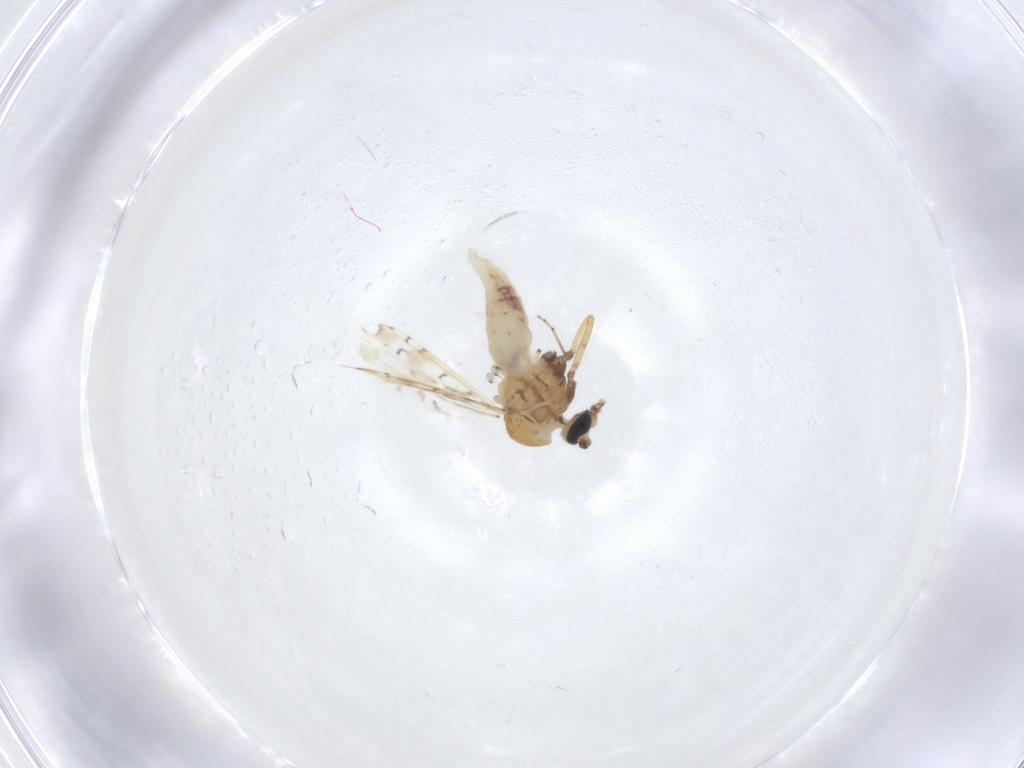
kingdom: Animalia
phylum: Arthropoda
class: Insecta
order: Diptera
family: Ceratopogonidae
